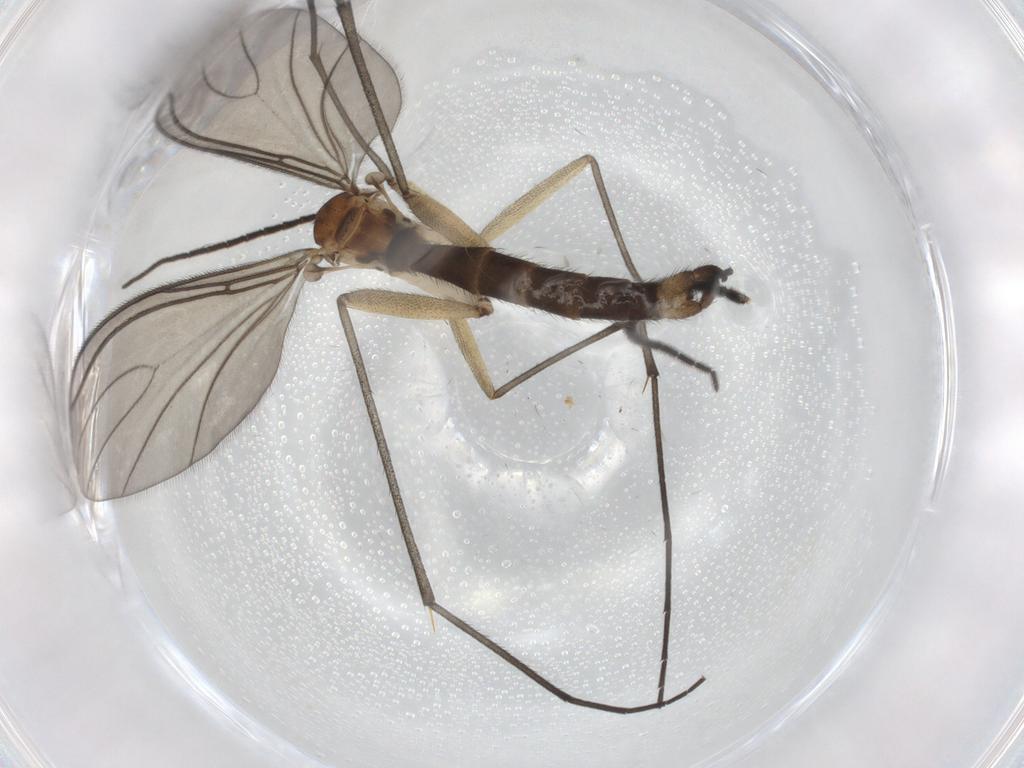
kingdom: Animalia
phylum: Arthropoda
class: Insecta
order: Diptera
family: Sciaridae
